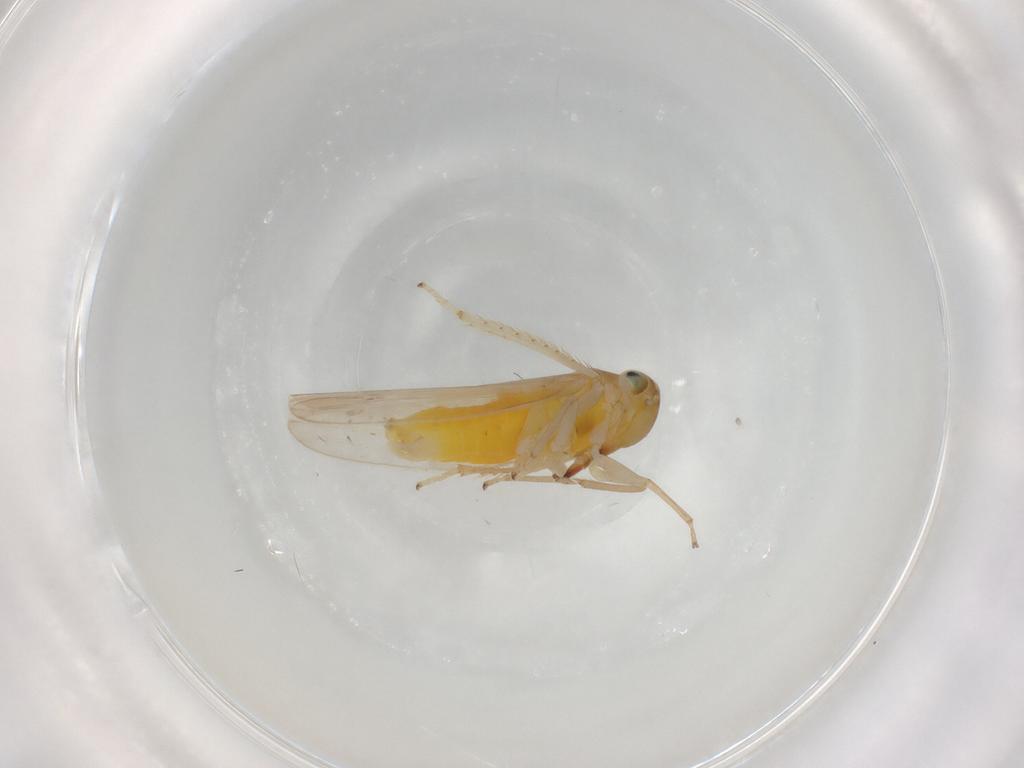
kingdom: Animalia
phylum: Arthropoda
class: Insecta
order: Hemiptera
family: Cicadellidae
